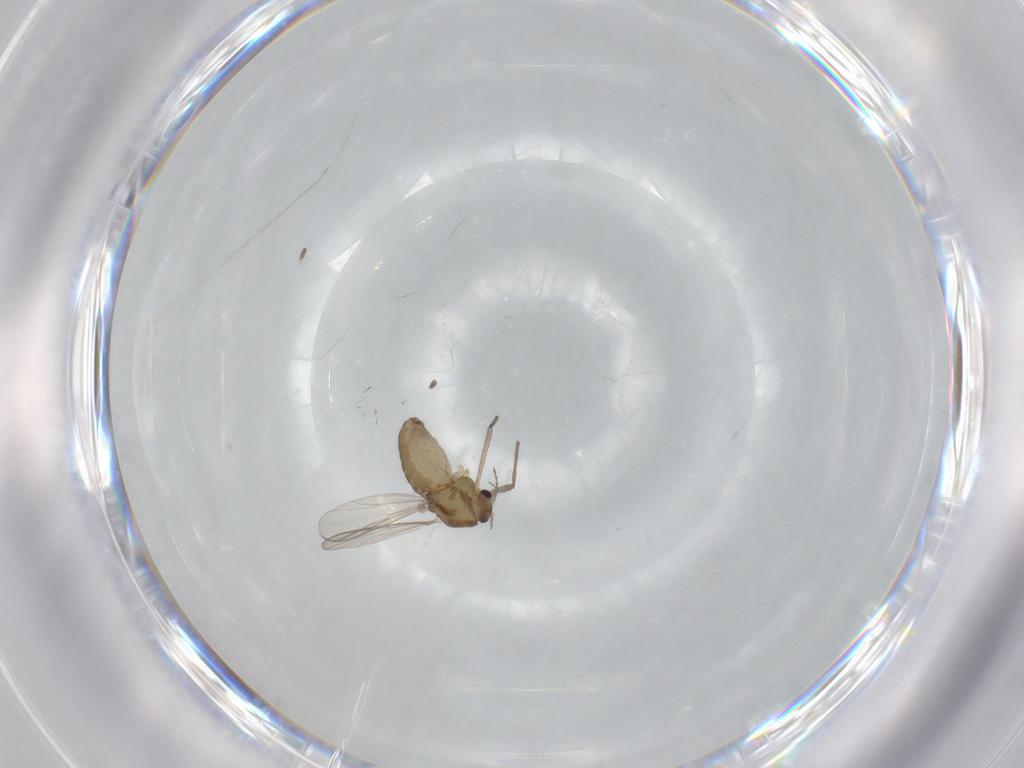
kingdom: Animalia
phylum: Arthropoda
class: Insecta
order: Diptera
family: Chironomidae
